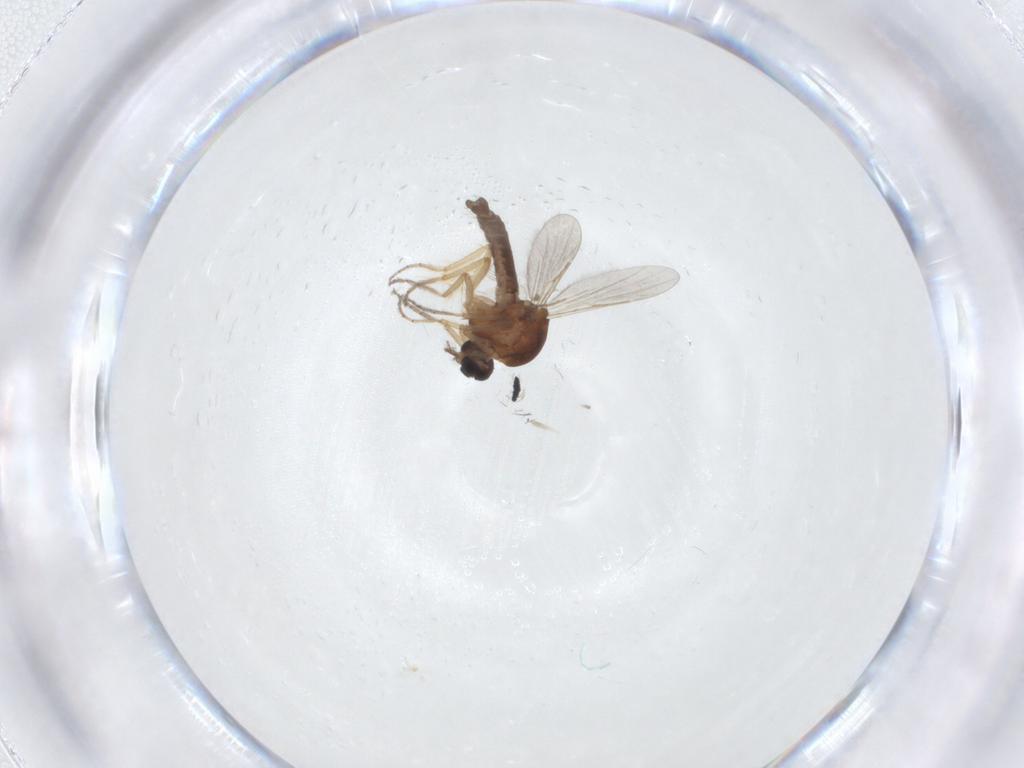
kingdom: Animalia
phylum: Arthropoda
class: Insecta
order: Diptera
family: Ceratopogonidae
